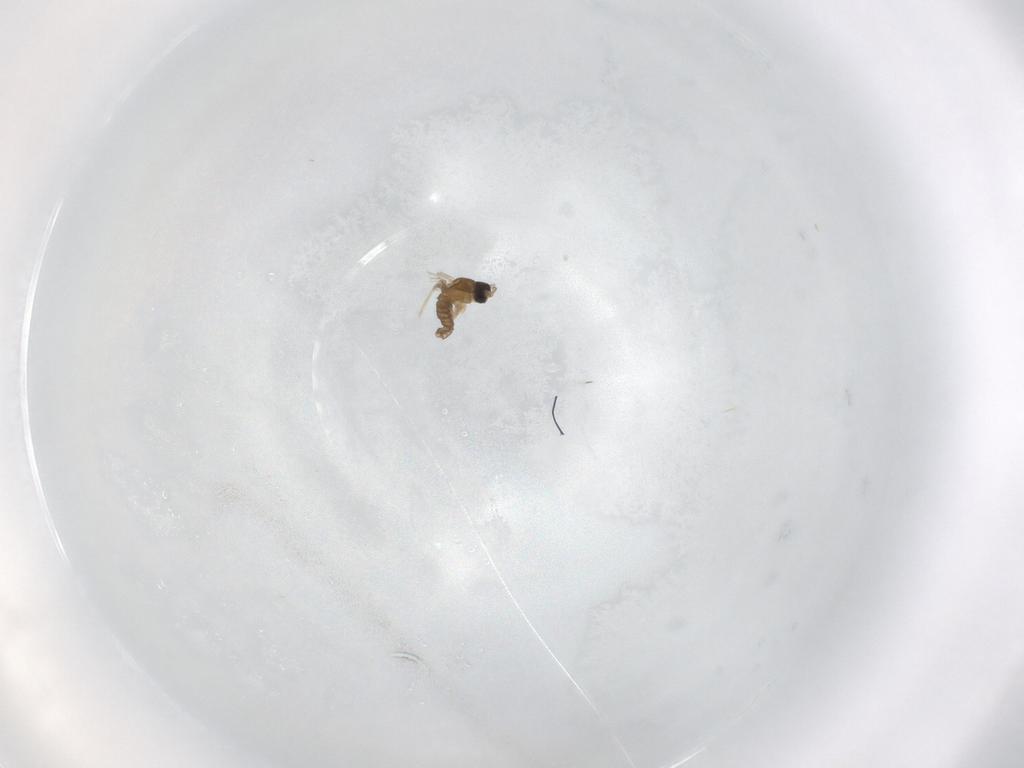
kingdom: Animalia
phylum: Arthropoda
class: Insecta
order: Diptera
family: Cecidomyiidae
